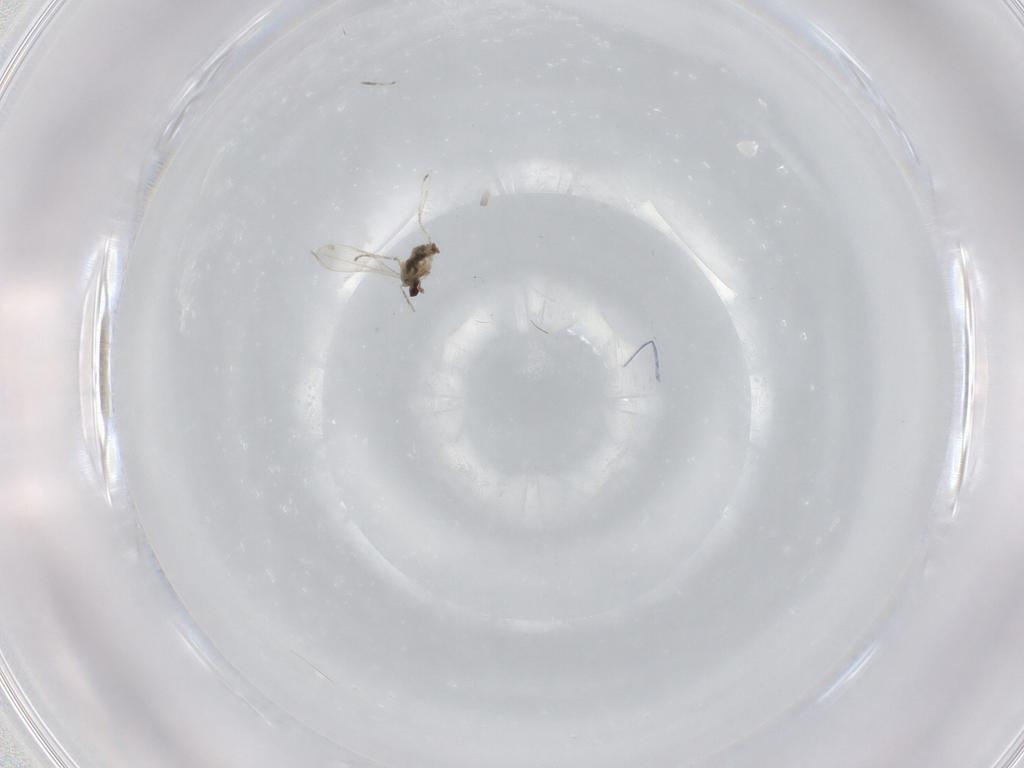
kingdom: Animalia
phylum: Arthropoda
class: Insecta
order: Diptera
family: Cecidomyiidae
